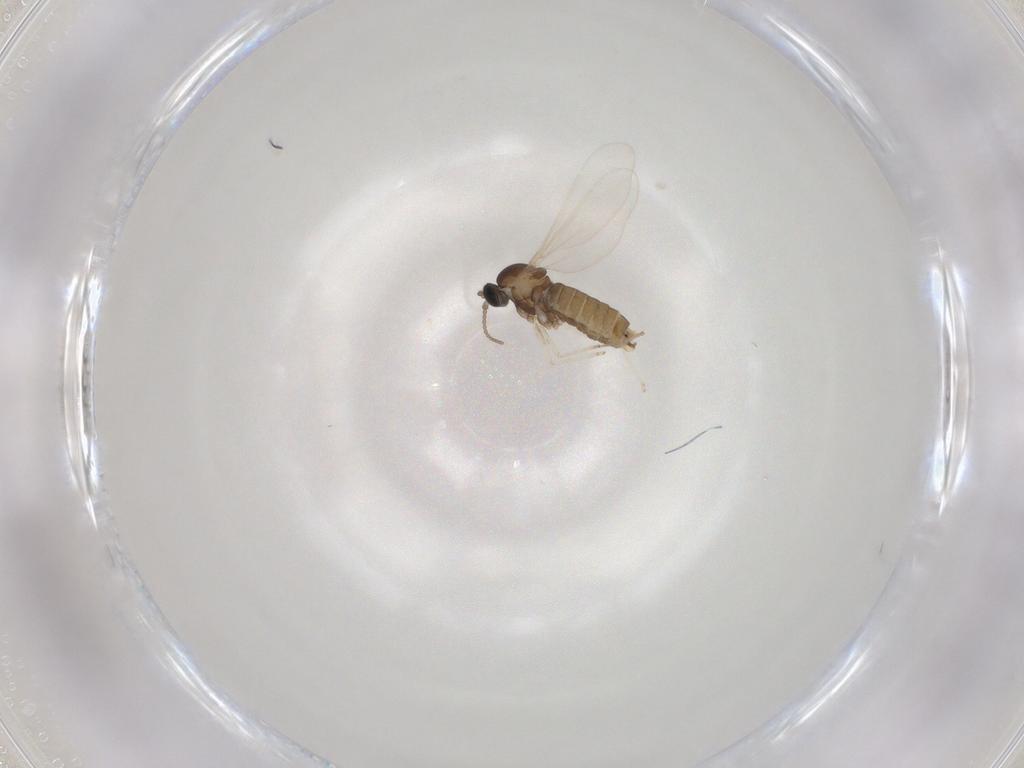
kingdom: Animalia
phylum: Arthropoda
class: Insecta
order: Diptera
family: Cecidomyiidae
